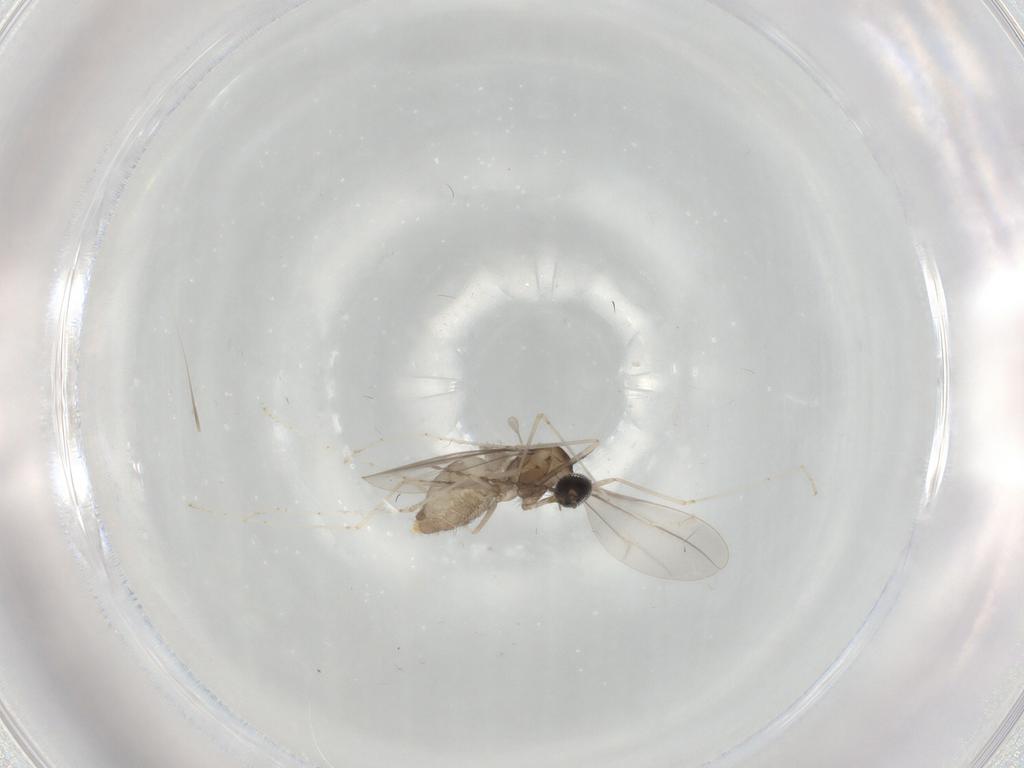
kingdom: Animalia
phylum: Arthropoda
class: Insecta
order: Diptera
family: Cecidomyiidae
